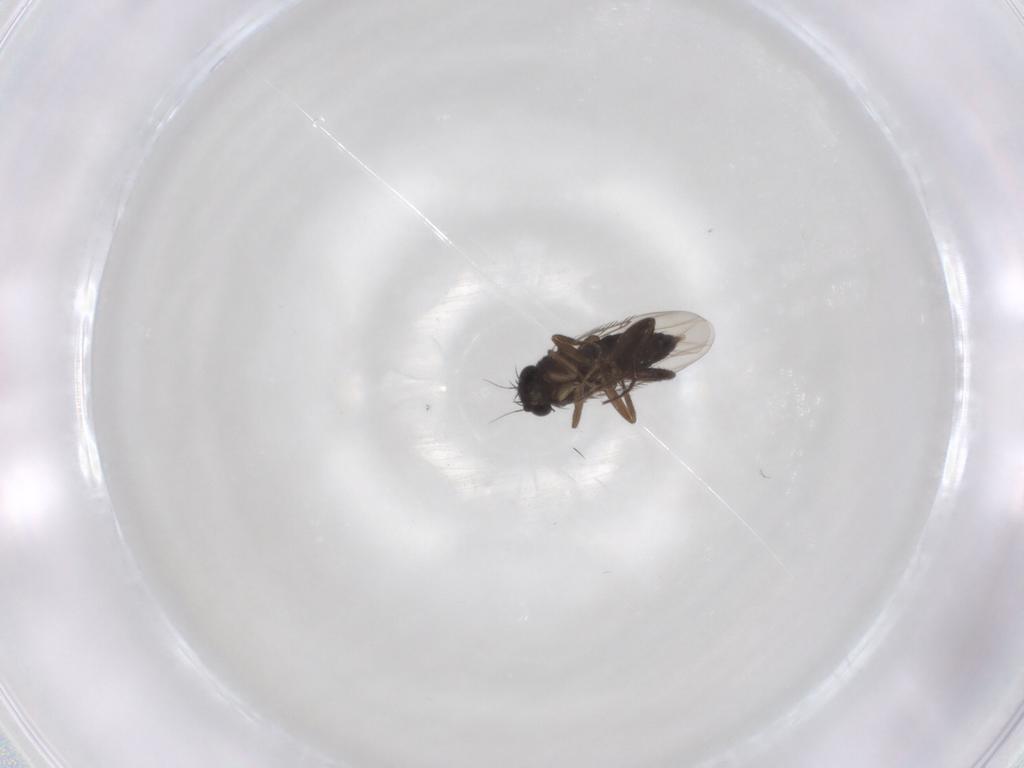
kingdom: Animalia
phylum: Arthropoda
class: Insecta
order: Diptera
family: Phoridae
